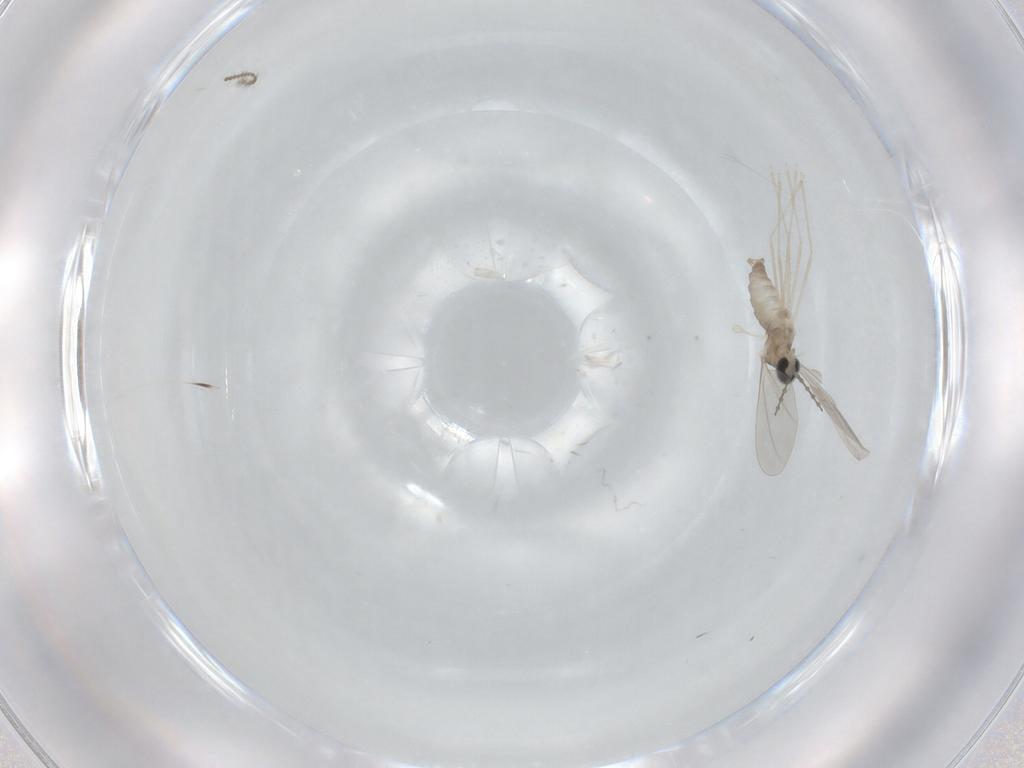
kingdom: Animalia
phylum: Arthropoda
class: Insecta
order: Diptera
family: Cecidomyiidae
